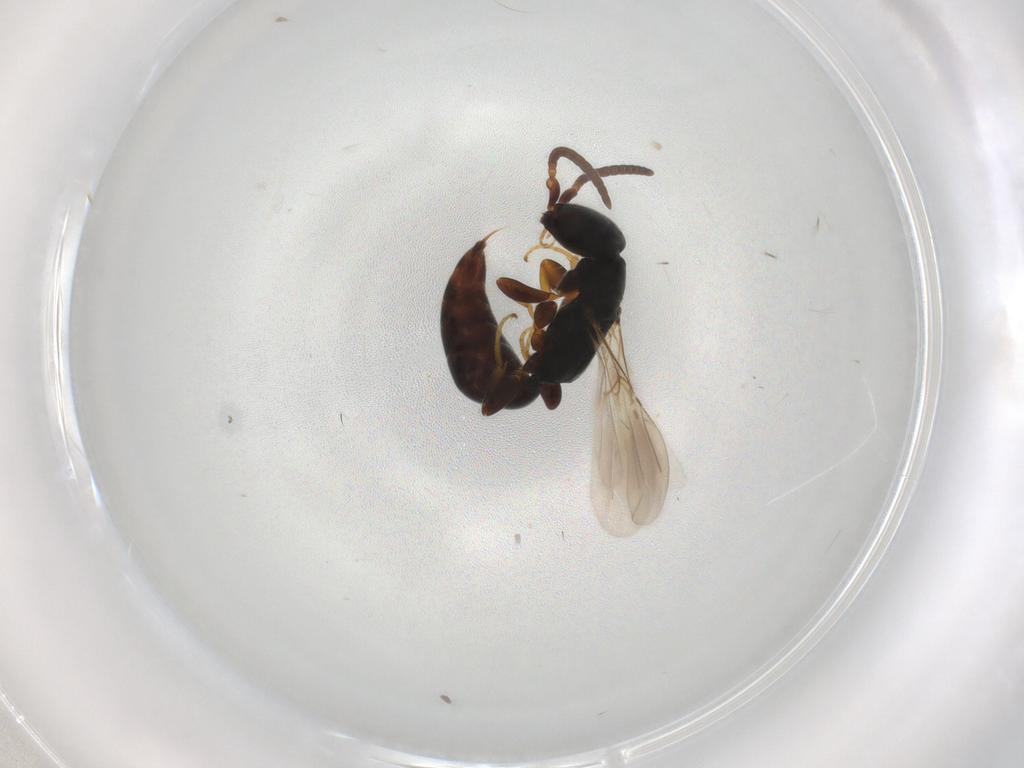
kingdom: Animalia
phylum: Arthropoda
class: Insecta
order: Hymenoptera
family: Bethylidae
